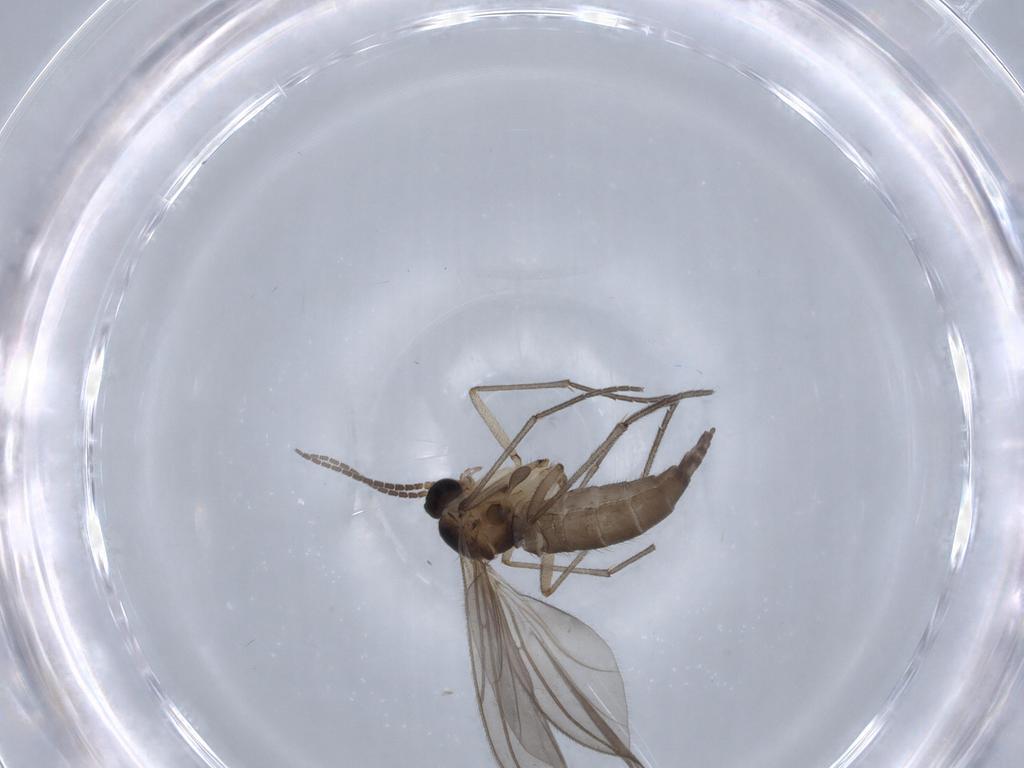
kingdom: Animalia
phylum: Arthropoda
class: Insecta
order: Diptera
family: Sciaridae
